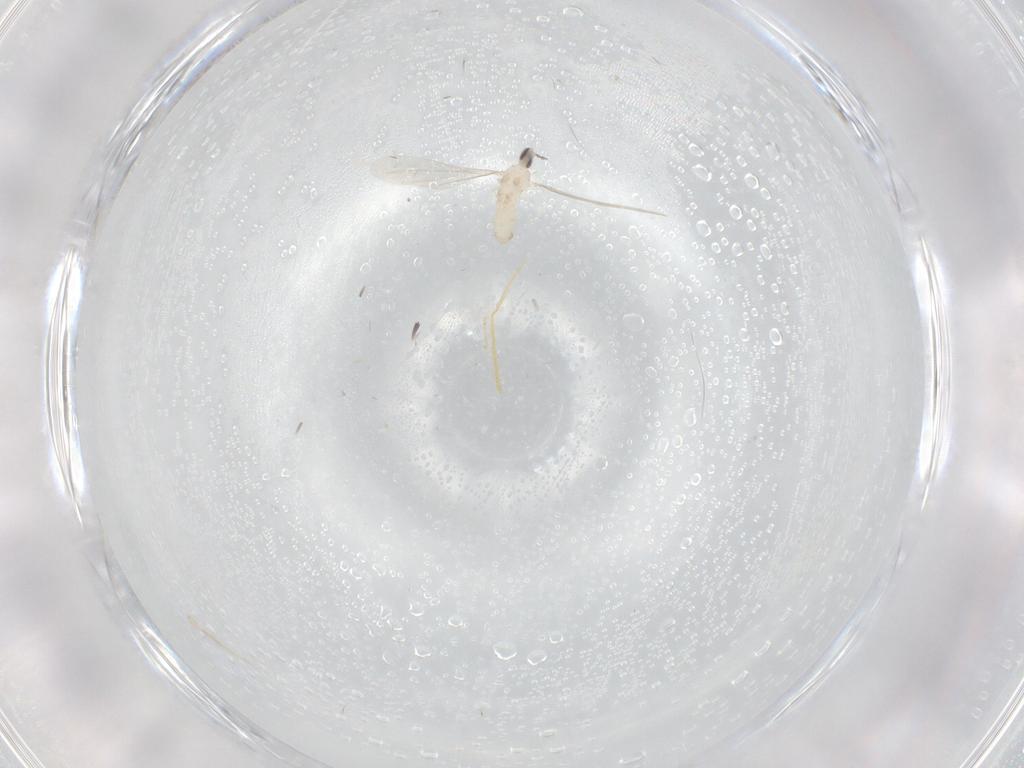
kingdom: Animalia
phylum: Arthropoda
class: Insecta
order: Diptera
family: Cecidomyiidae
